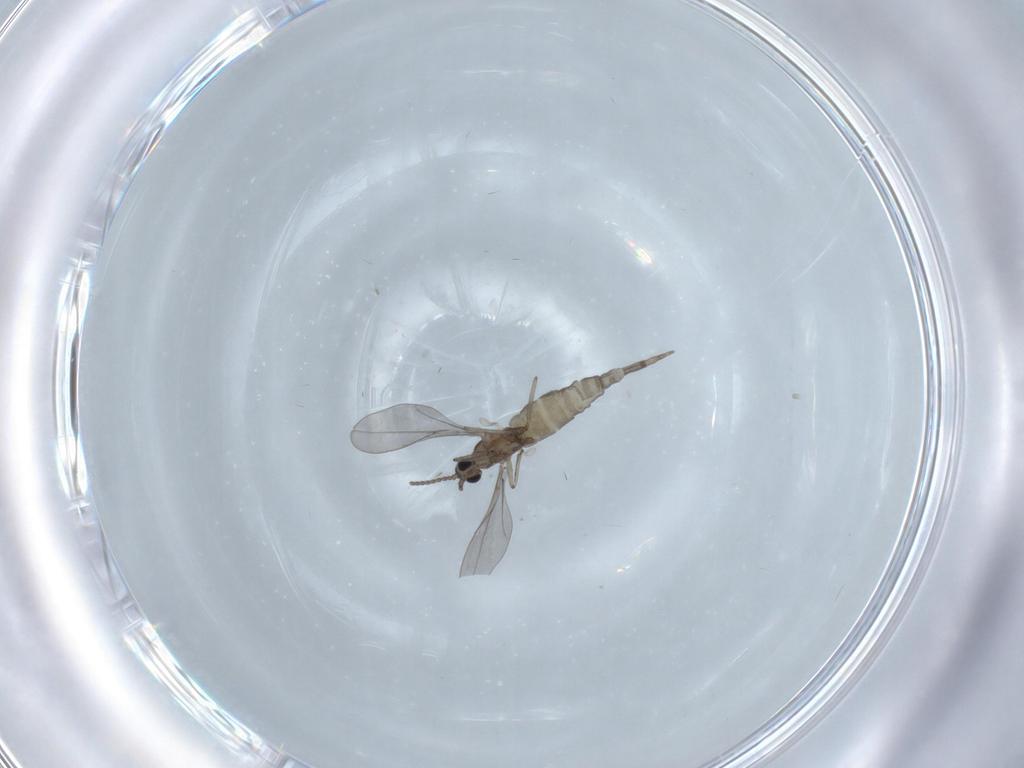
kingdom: Animalia
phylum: Arthropoda
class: Insecta
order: Diptera
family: Cecidomyiidae
